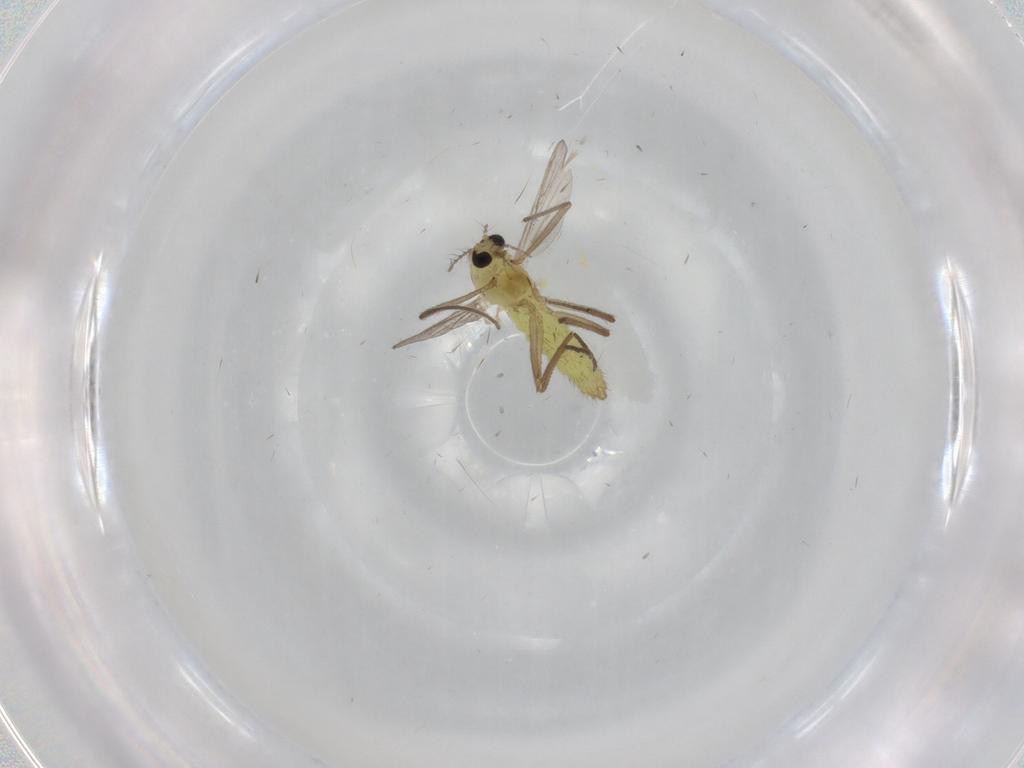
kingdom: Animalia
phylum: Arthropoda
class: Insecta
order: Diptera
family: Chironomidae
